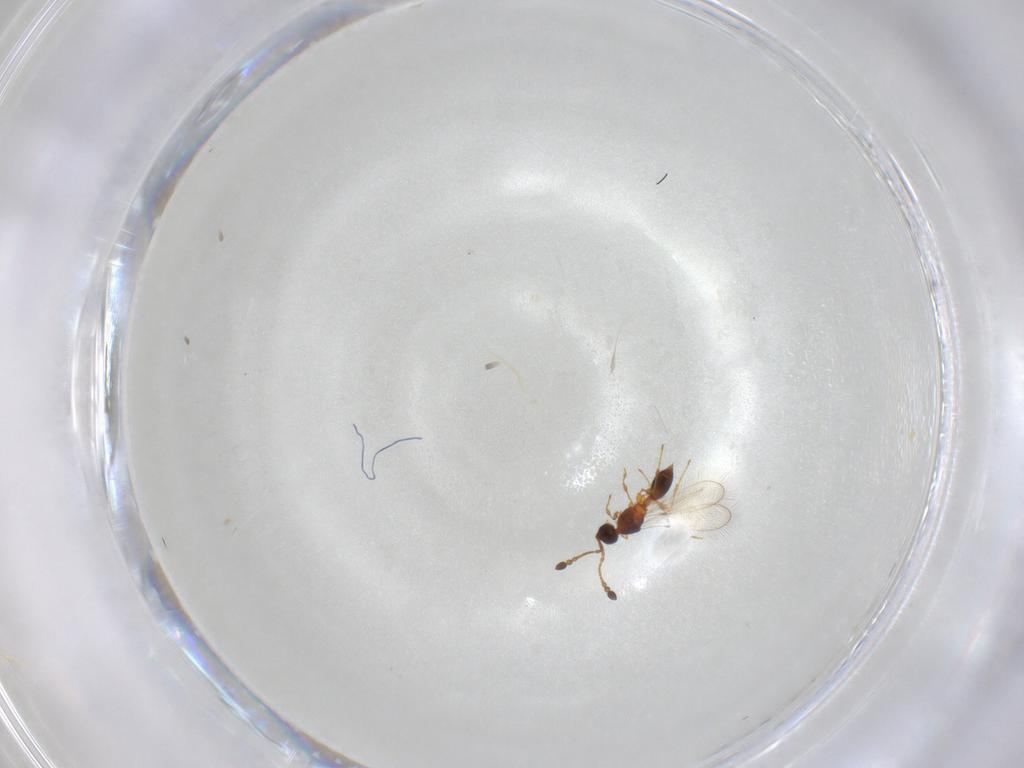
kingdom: Animalia
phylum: Arthropoda
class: Insecta
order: Hymenoptera
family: Diapriidae
